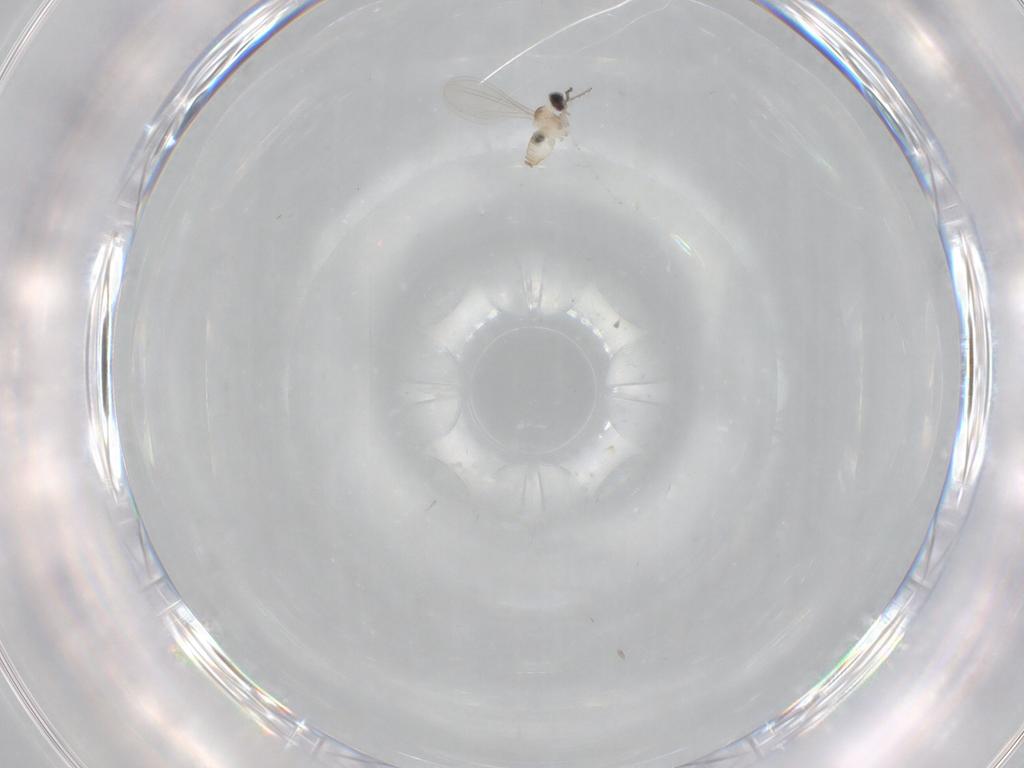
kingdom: Animalia
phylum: Arthropoda
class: Insecta
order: Diptera
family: Cecidomyiidae
